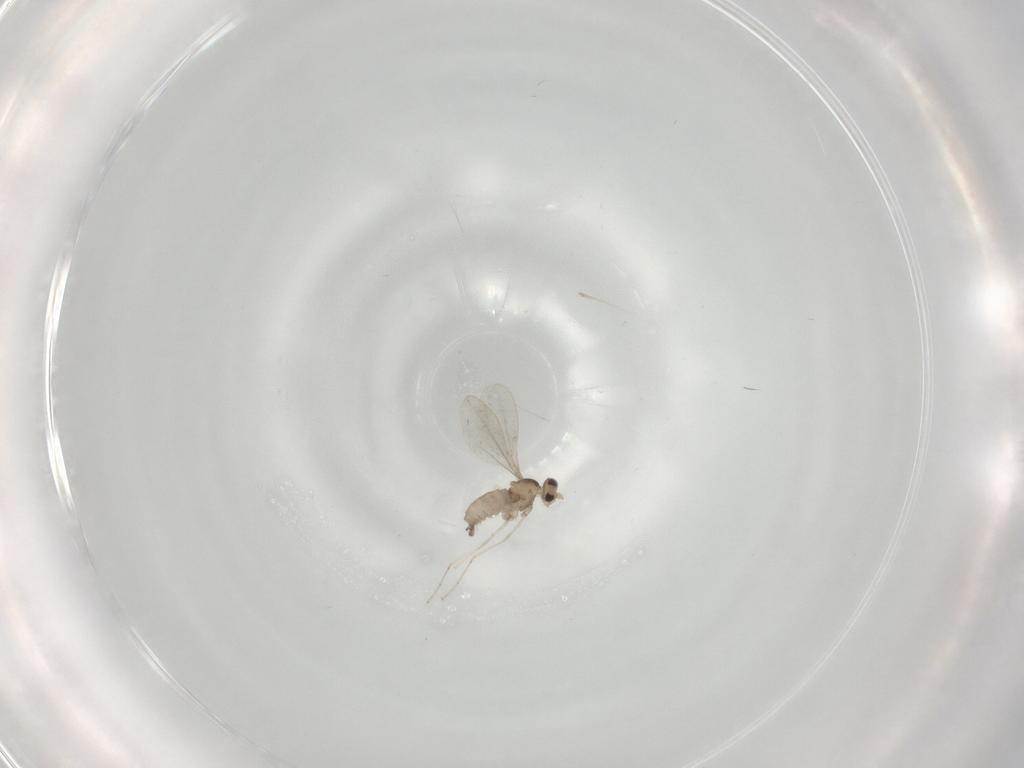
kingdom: Animalia
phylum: Arthropoda
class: Insecta
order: Diptera
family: Cecidomyiidae
